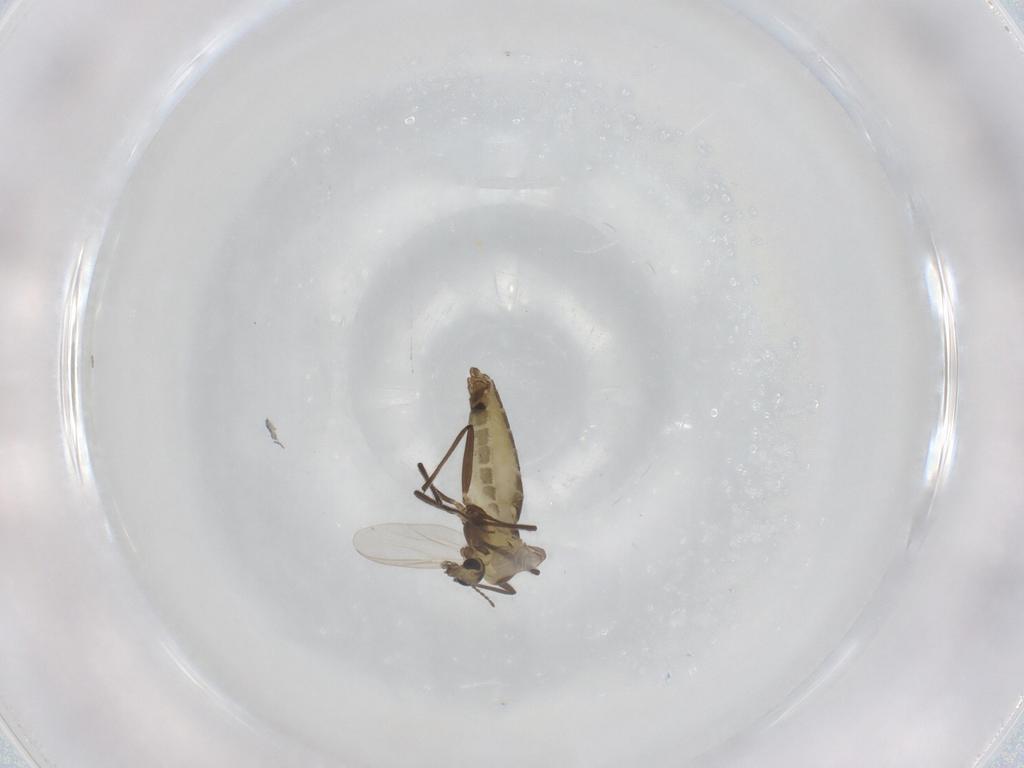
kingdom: Animalia
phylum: Arthropoda
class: Insecta
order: Diptera
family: Chironomidae
